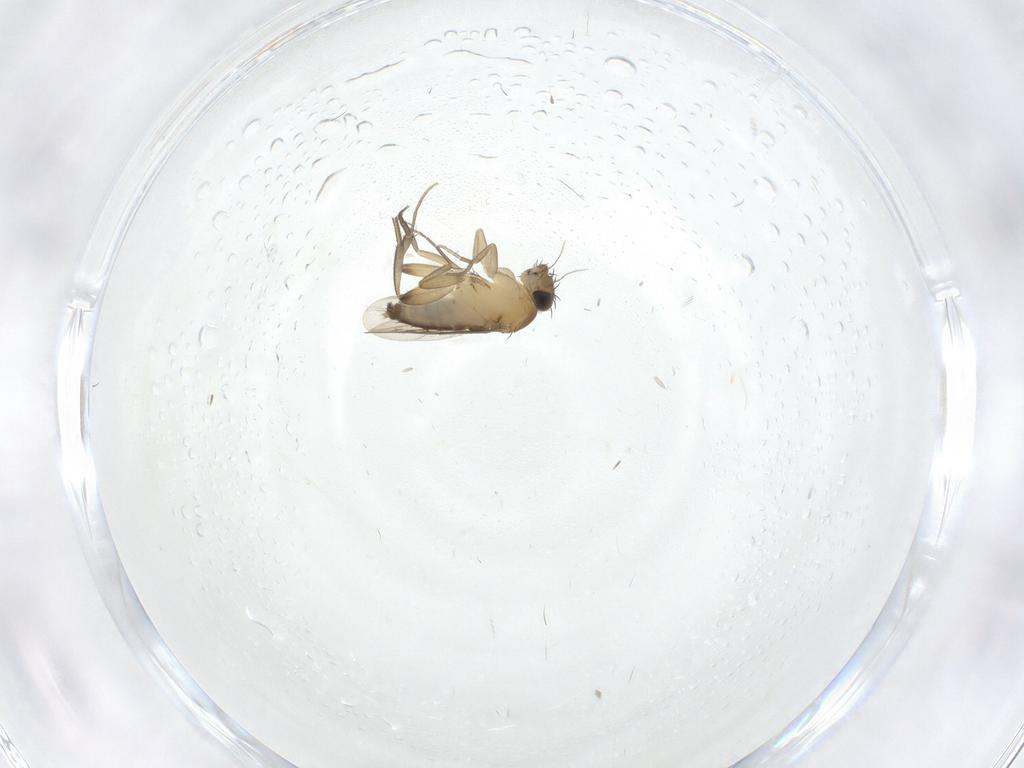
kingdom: Animalia
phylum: Arthropoda
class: Insecta
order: Diptera
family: Phoridae
